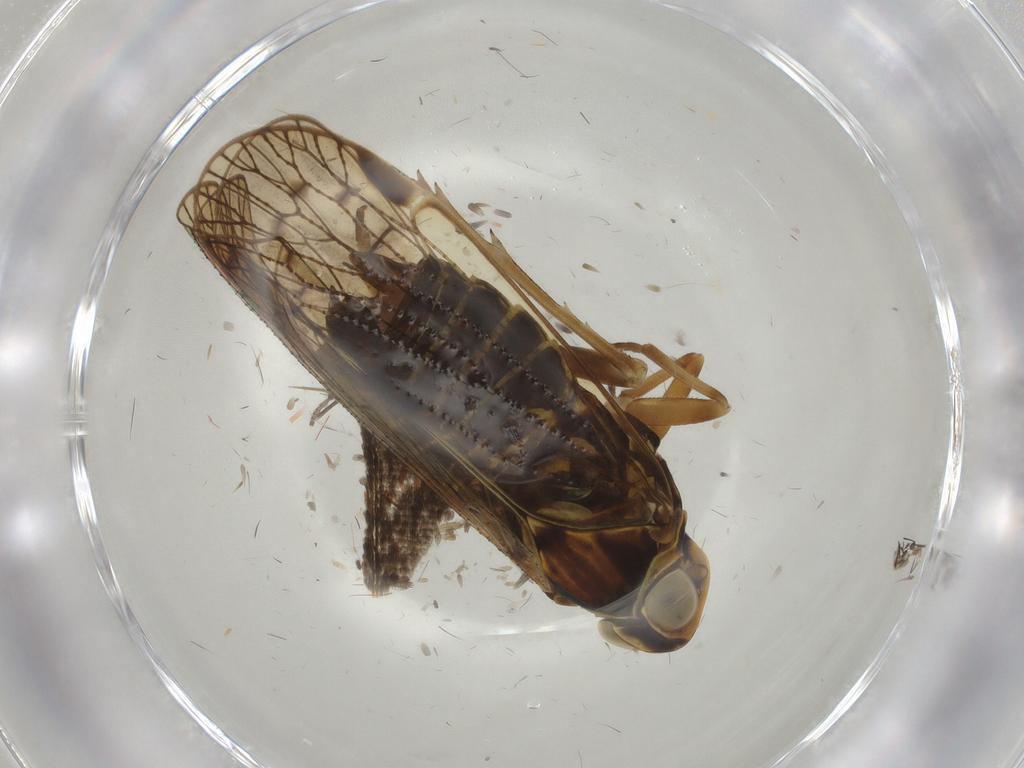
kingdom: Animalia
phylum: Arthropoda
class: Insecta
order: Hemiptera
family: Cixiidae
